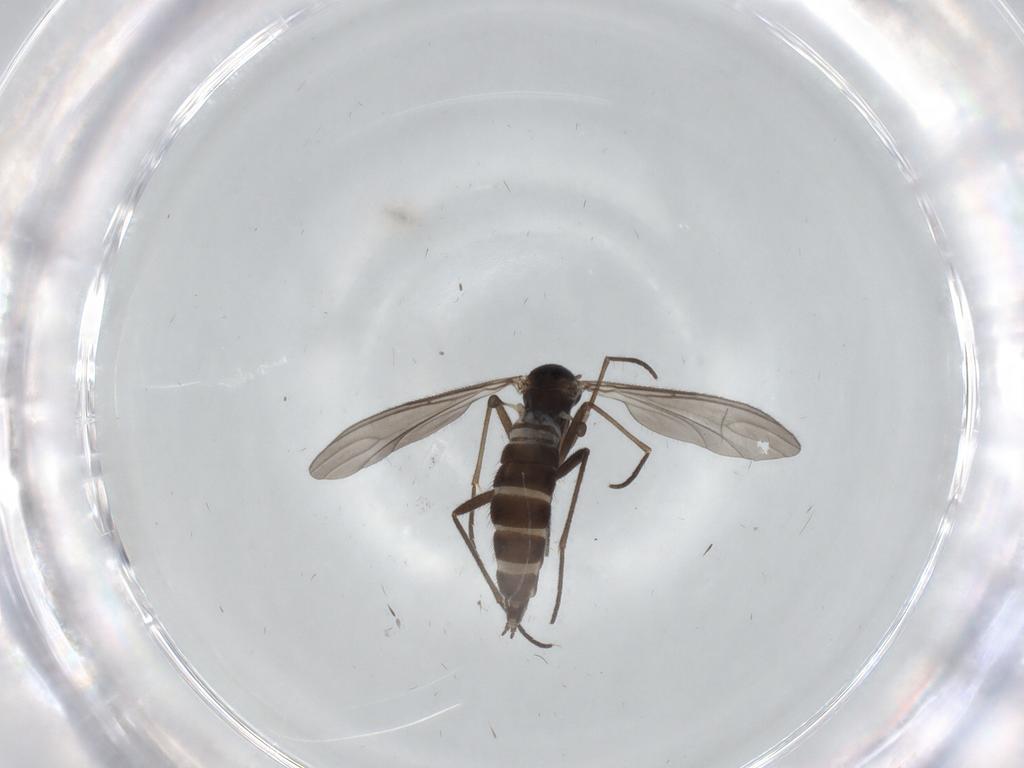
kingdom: Animalia
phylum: Arthropoda
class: Insecta
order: Diptera
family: Sciaridae
